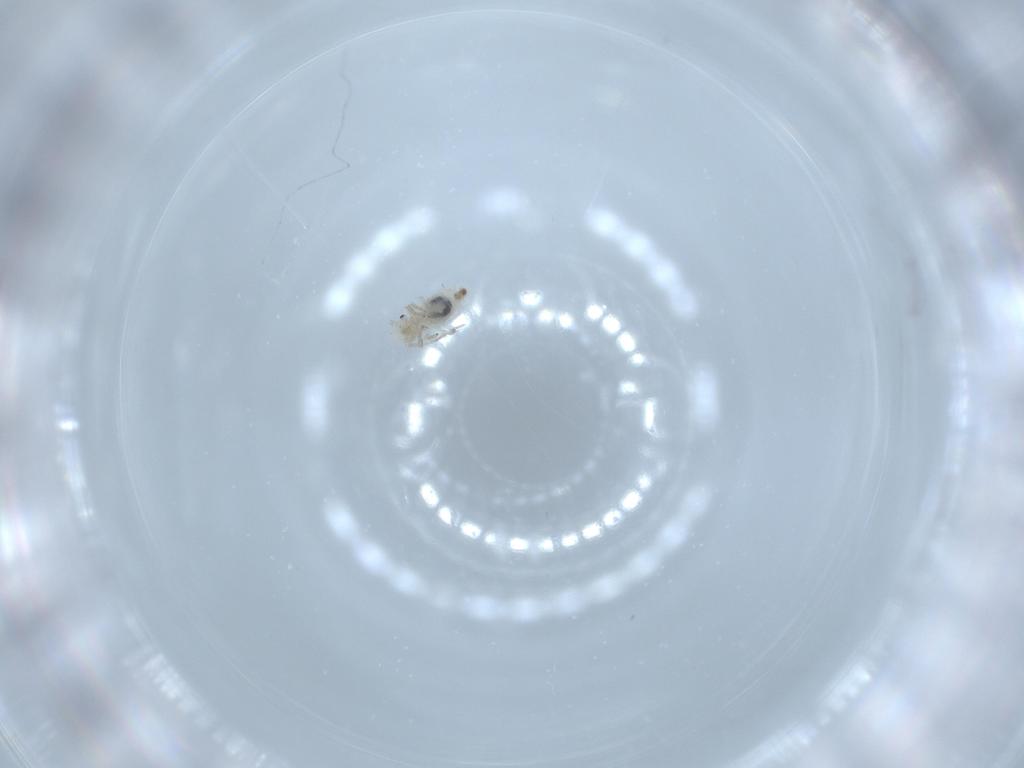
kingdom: Animalia
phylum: Arthropoda
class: Insecta
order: Psocodea
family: Caeciliusidae
